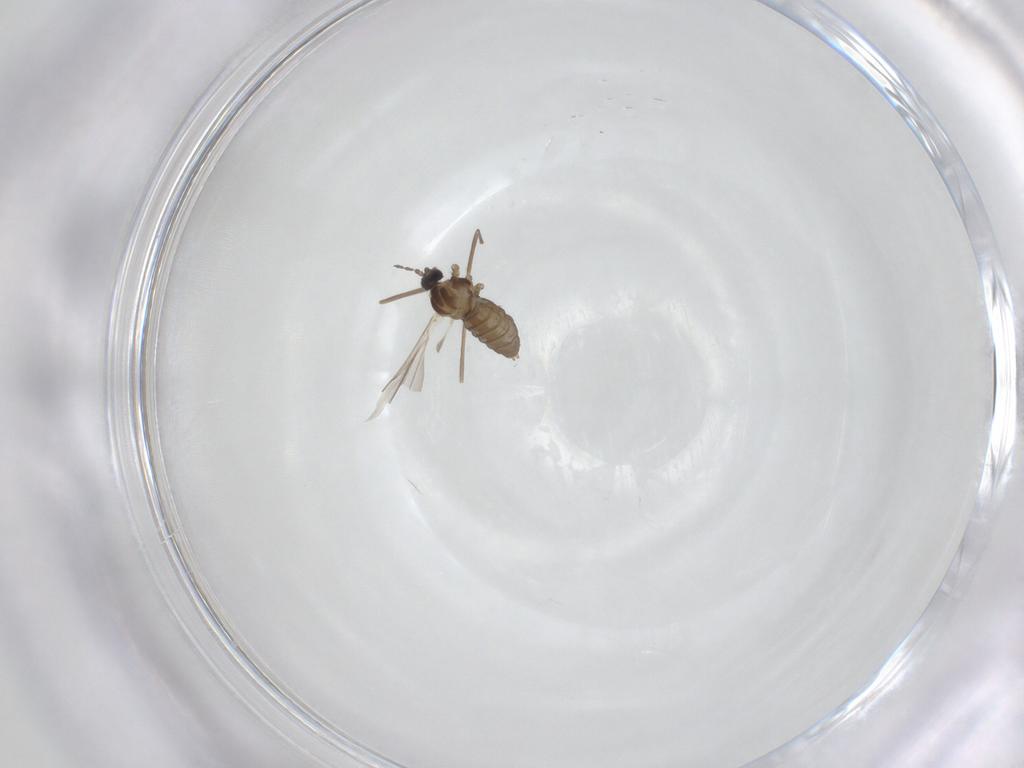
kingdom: Animalia
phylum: Arthropoda
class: Insecta
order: Diptera
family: Cecidomyiidae
